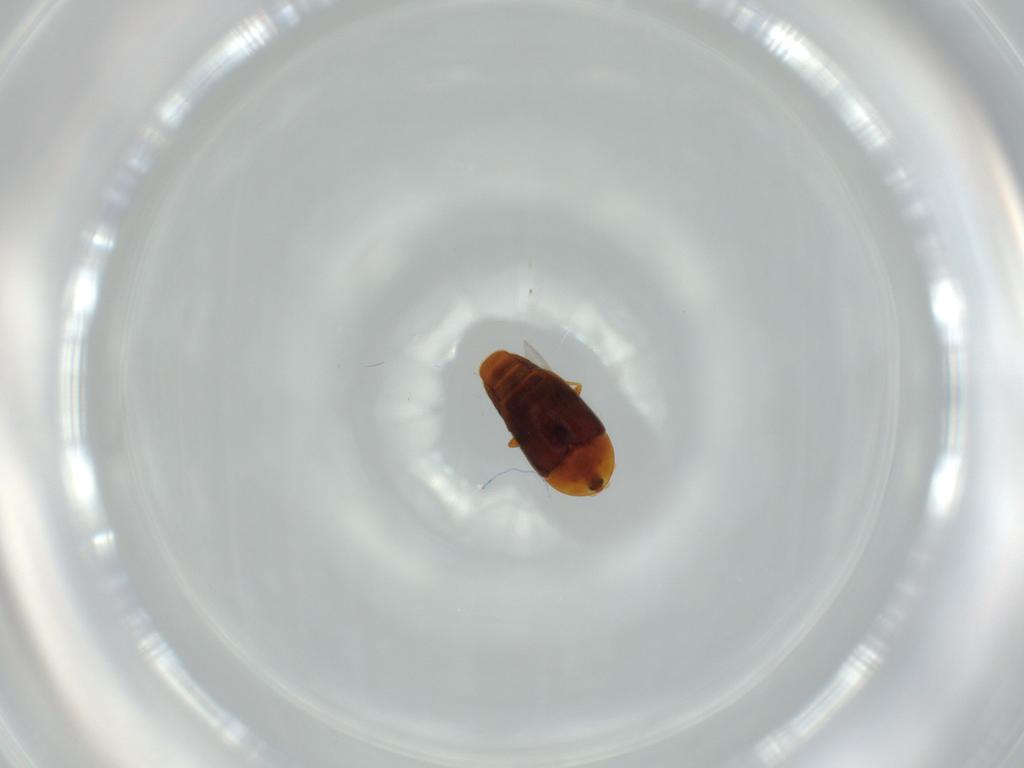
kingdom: Animalia
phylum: Arthropoda
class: Insecta
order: Coleoptera
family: Corylophidae
